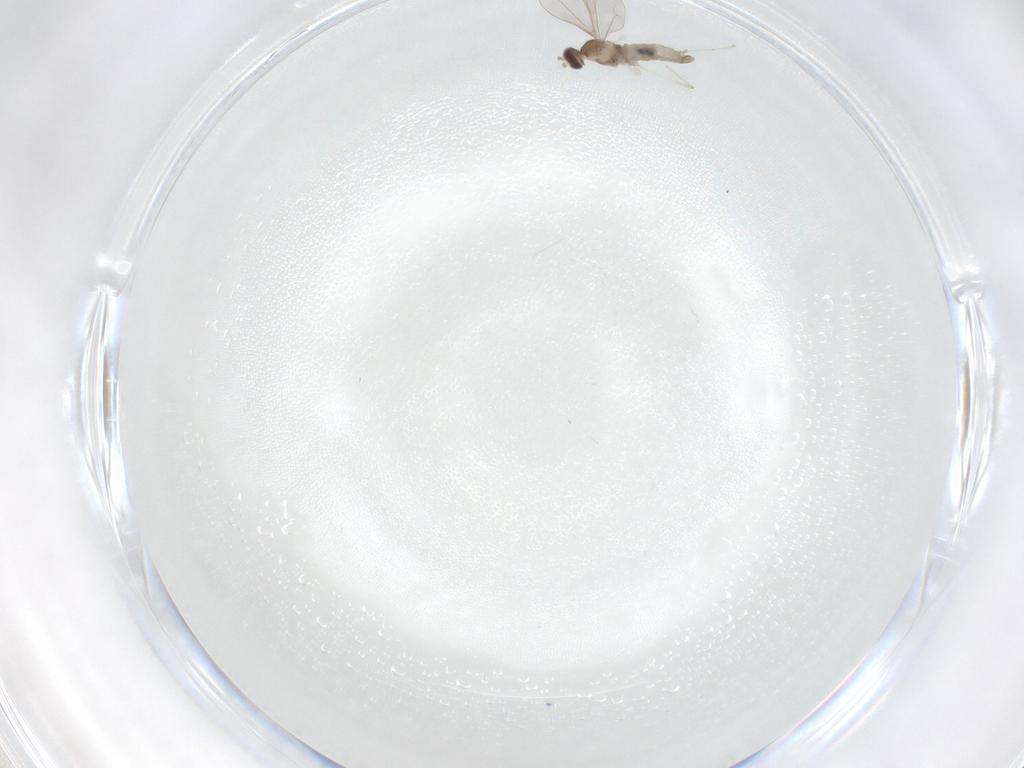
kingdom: Animalia
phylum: Arthropoda
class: Insecta
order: Diptera
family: Cecidomyiidae
